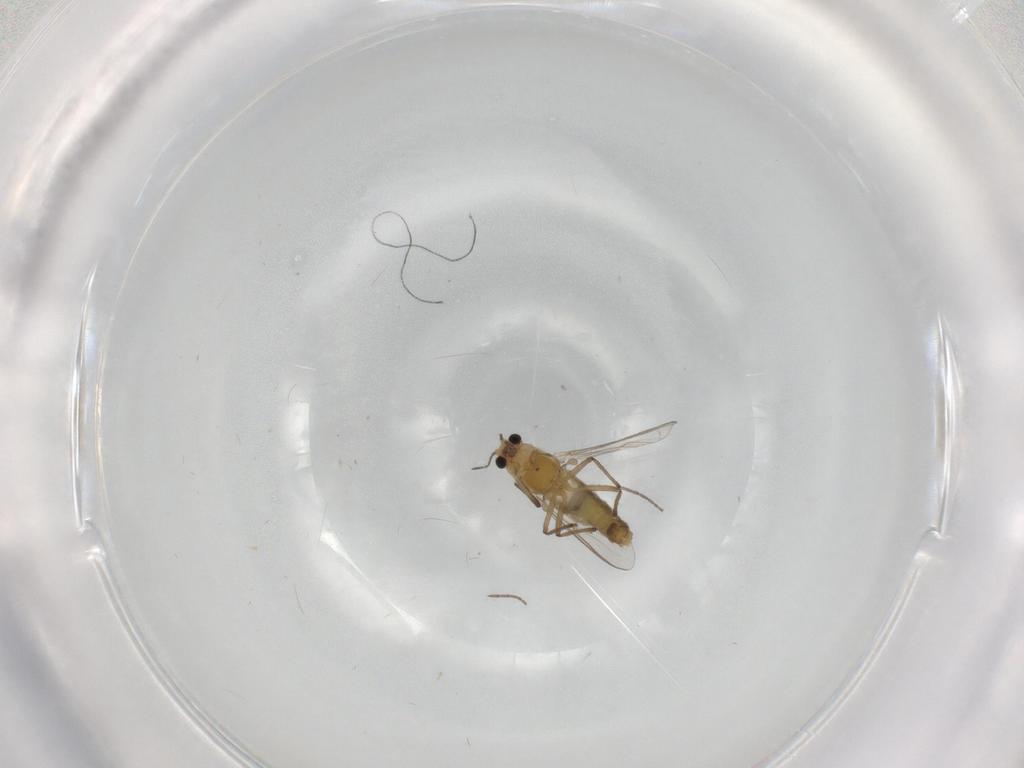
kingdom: Animalia
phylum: Arthropoda
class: Insecta
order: Diptera
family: Chironomidae
